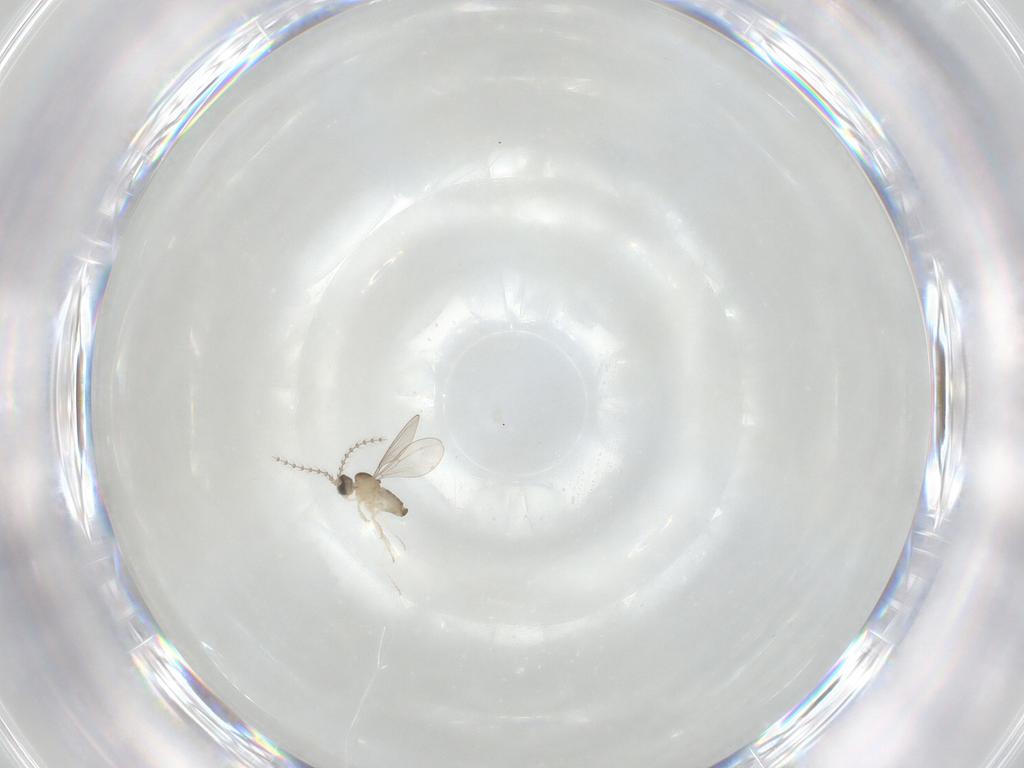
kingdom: Animalia
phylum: Arthropoda
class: Insecta
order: Diptera
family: Cecidomyiidae
